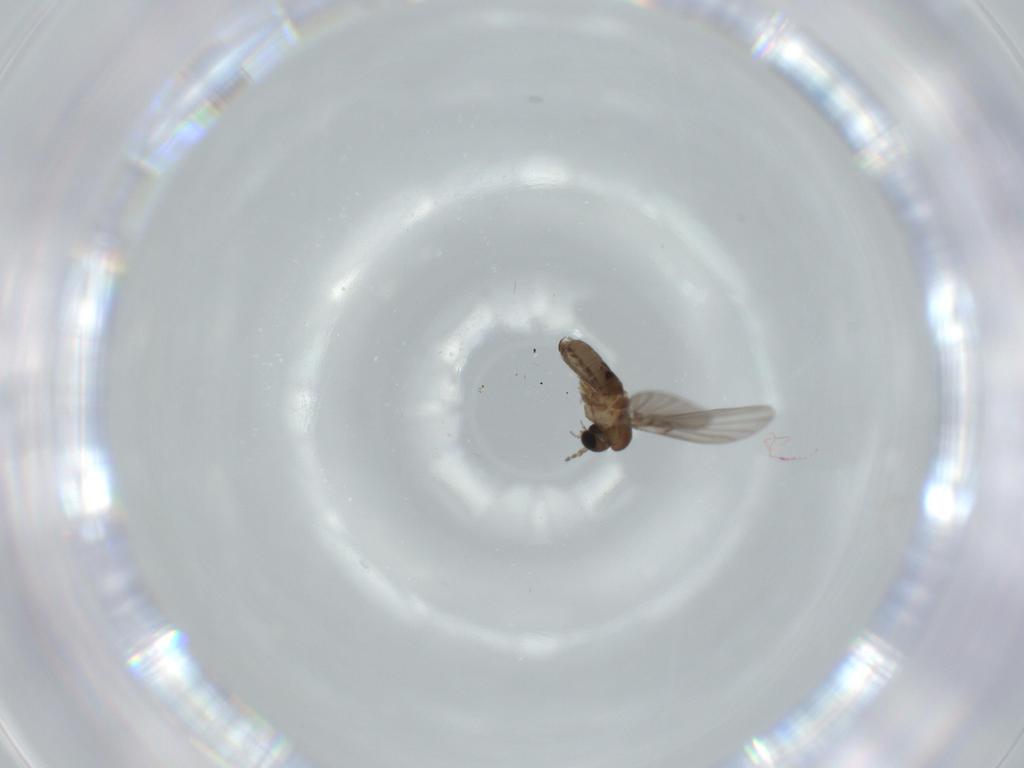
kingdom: Animalia
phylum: Arthropoda
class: Insecta
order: Diptera
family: Psychodidae
